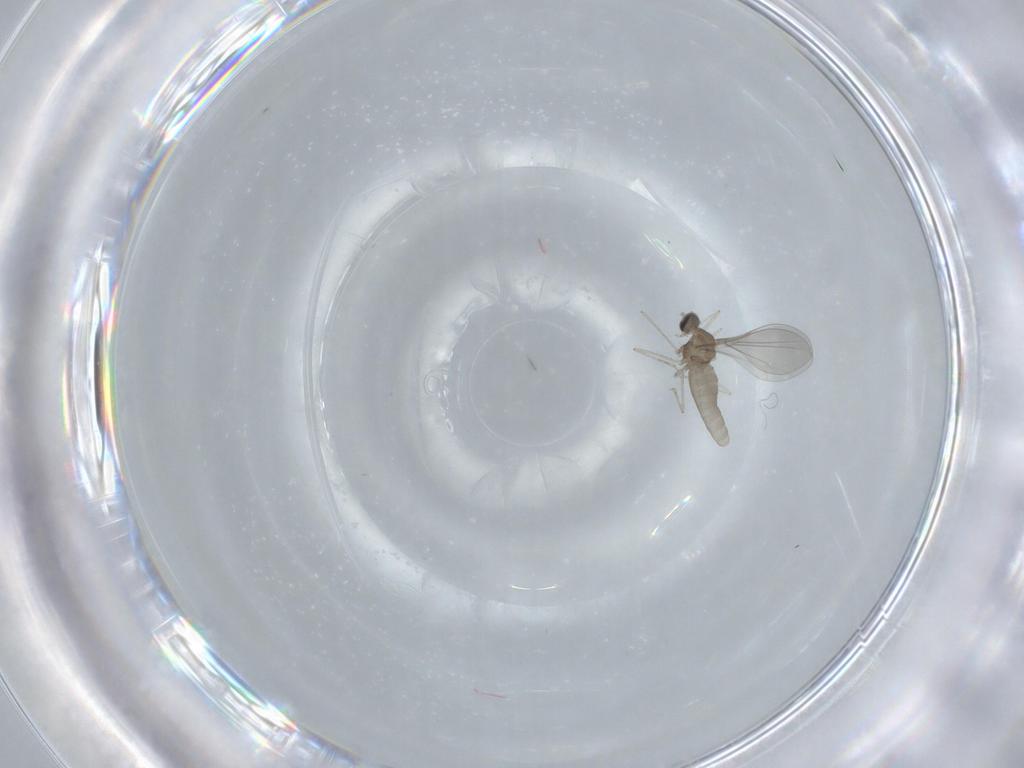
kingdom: Animalia
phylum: Arthropoda
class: Insecta
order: Diptera
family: Cecidomyiidae
